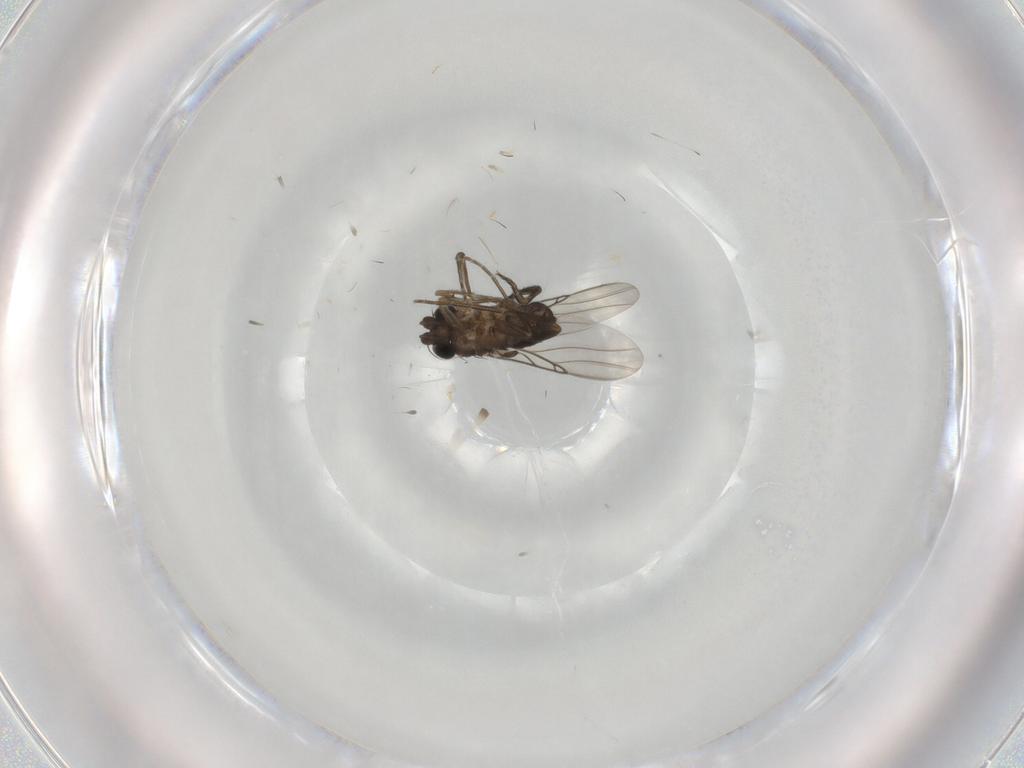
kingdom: Animalia
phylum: Arthropoda
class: Insecta
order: Diptera
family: Phoridae
